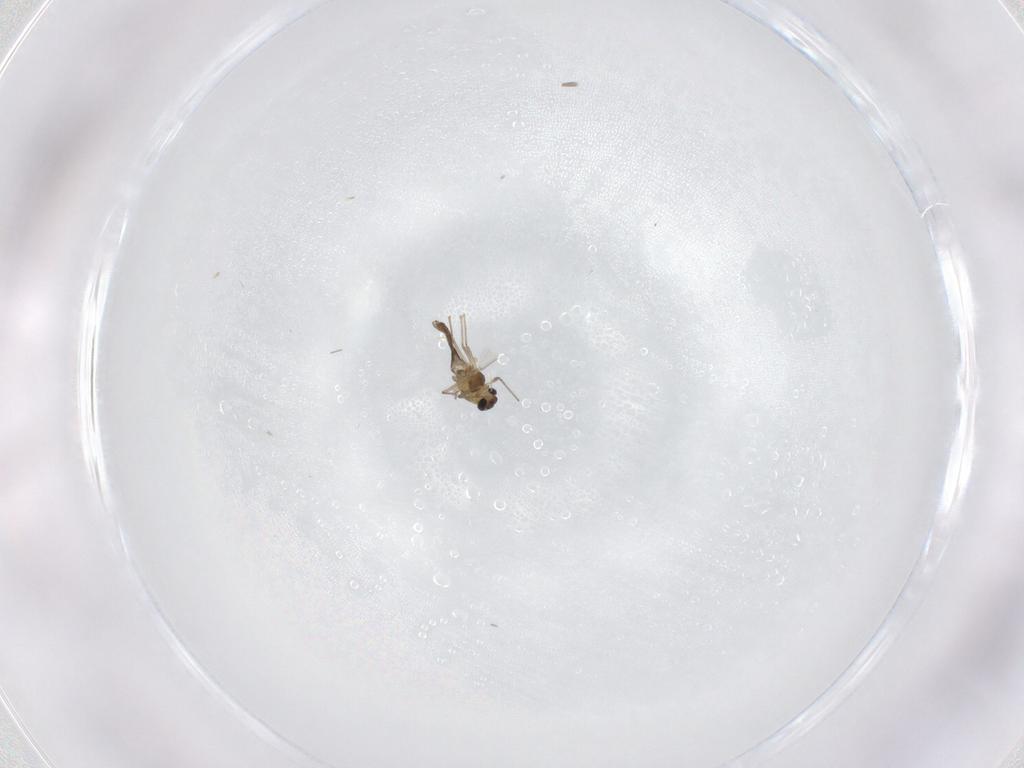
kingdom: Animalia
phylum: Arthropoda
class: Insecta
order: Diptera
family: Chironomidae
